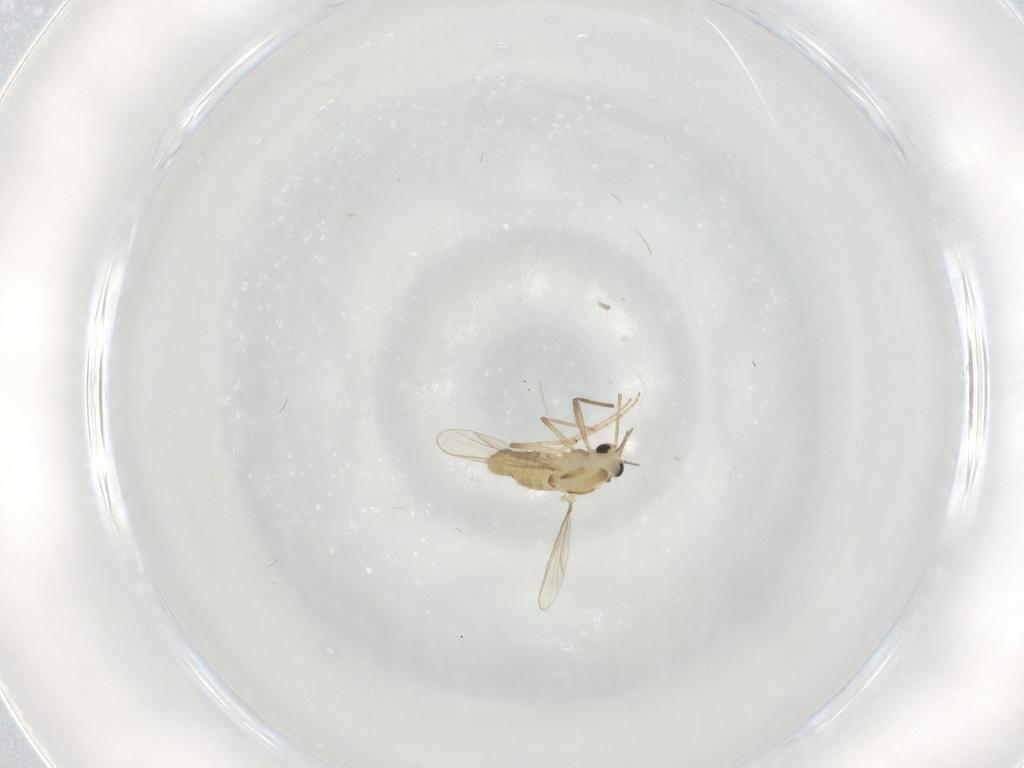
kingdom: Animalia
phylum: Arthropoda
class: Insecta
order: Diptera
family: Chironomidae
